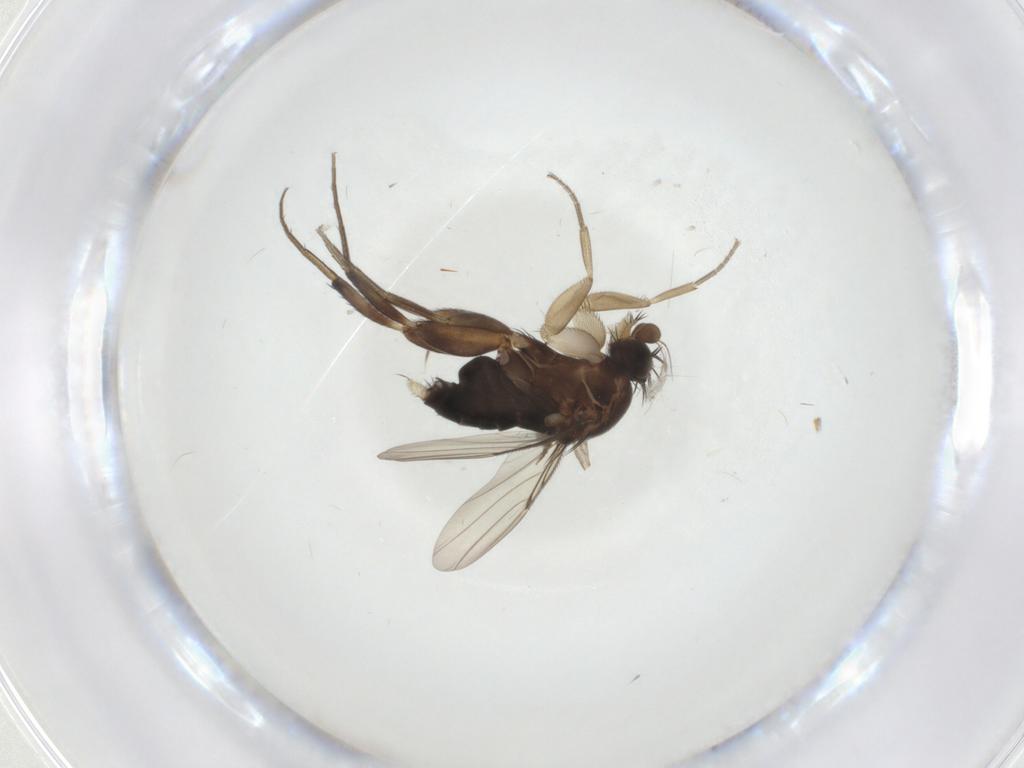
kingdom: Animalia
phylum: Arthropoda
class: Insecta
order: Diptera
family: Phoridae
